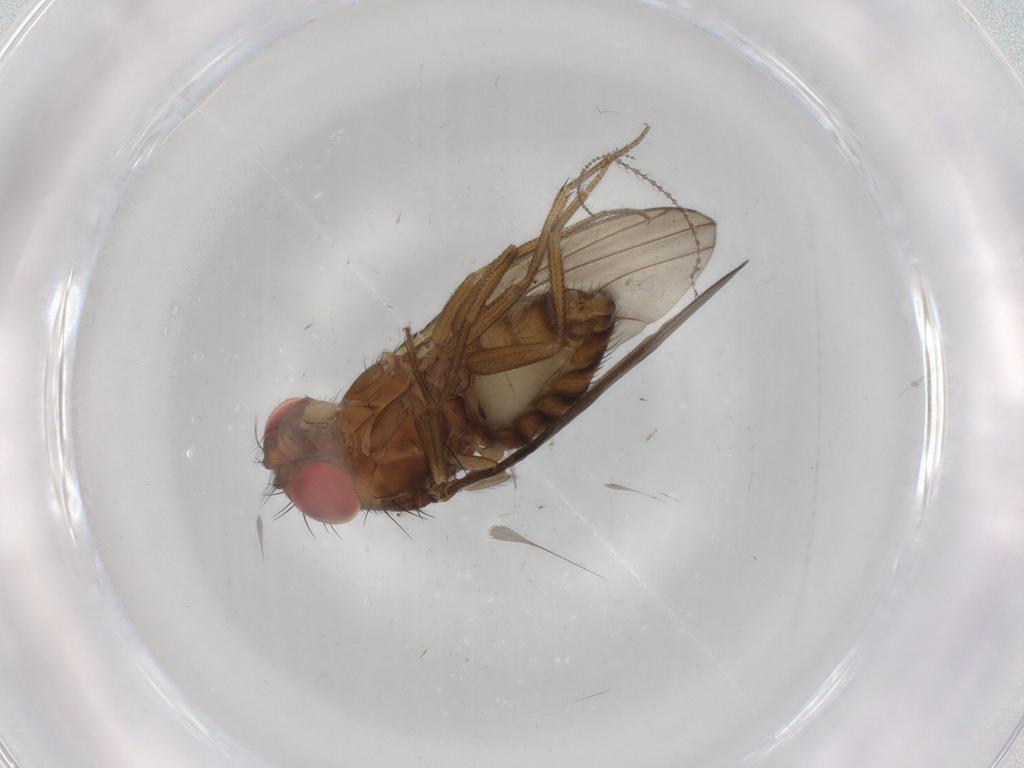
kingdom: Animalia
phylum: Arthropoda
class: Insecta
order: Diptera
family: Drosophilidae
